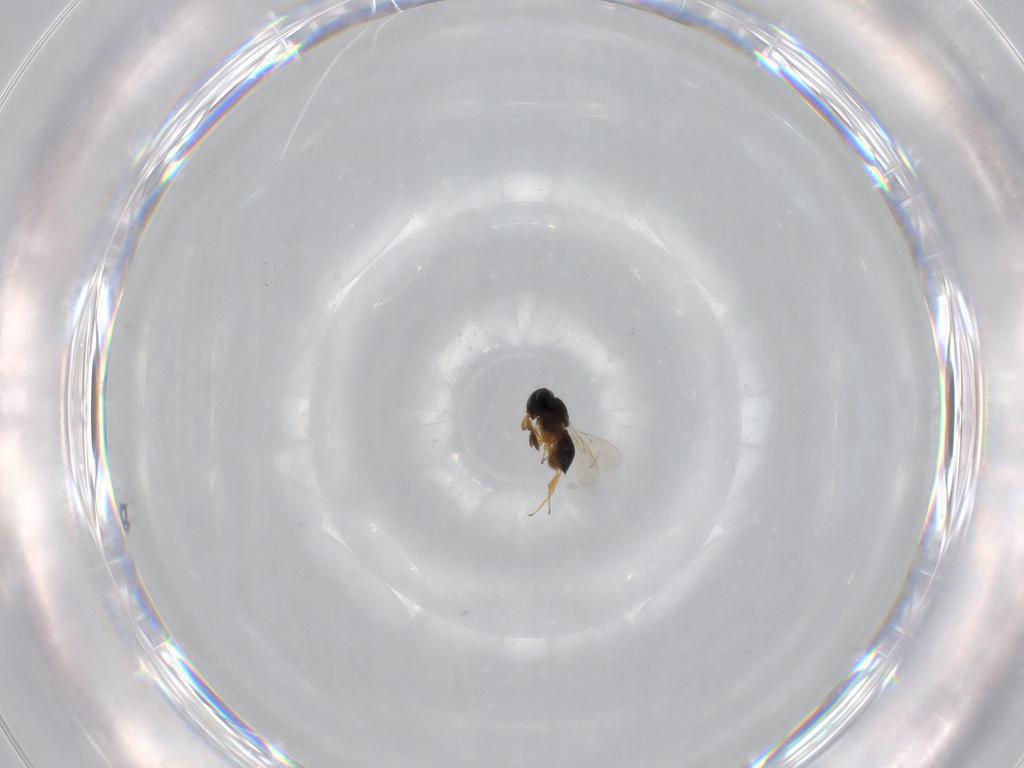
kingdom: Animalia
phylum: Arthropoda
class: Insecta
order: Hymenoptera
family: Scelionidae
